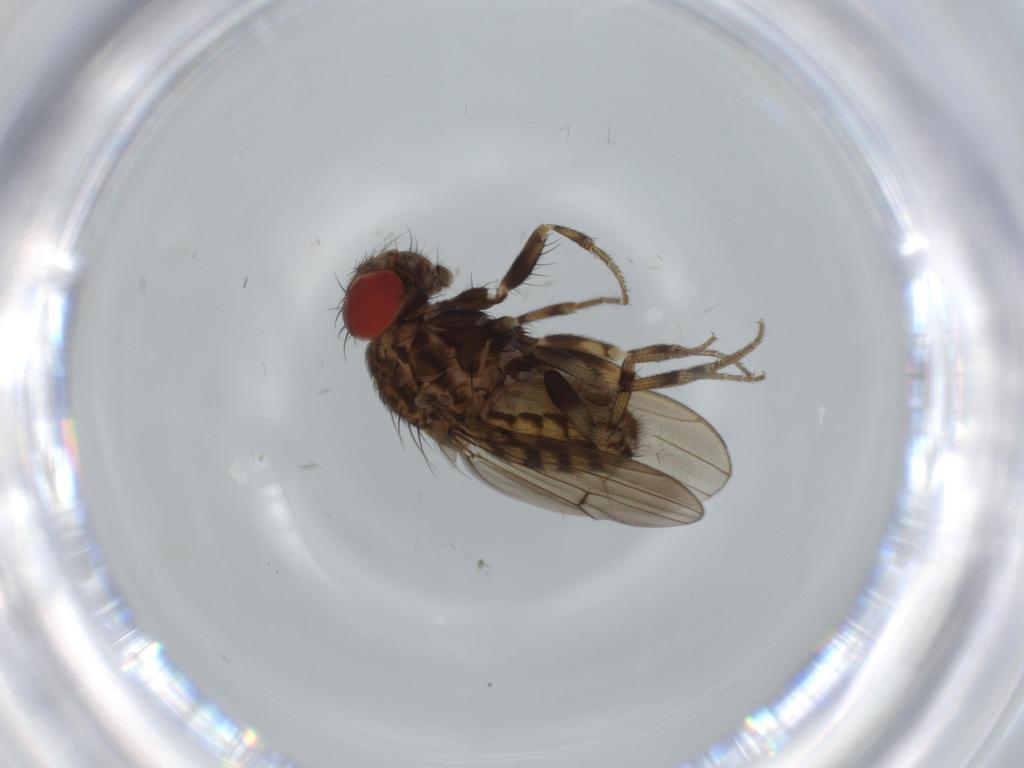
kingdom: Animalia
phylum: Arthropoda
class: Insecta
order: Diptera
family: Drosophilidae
